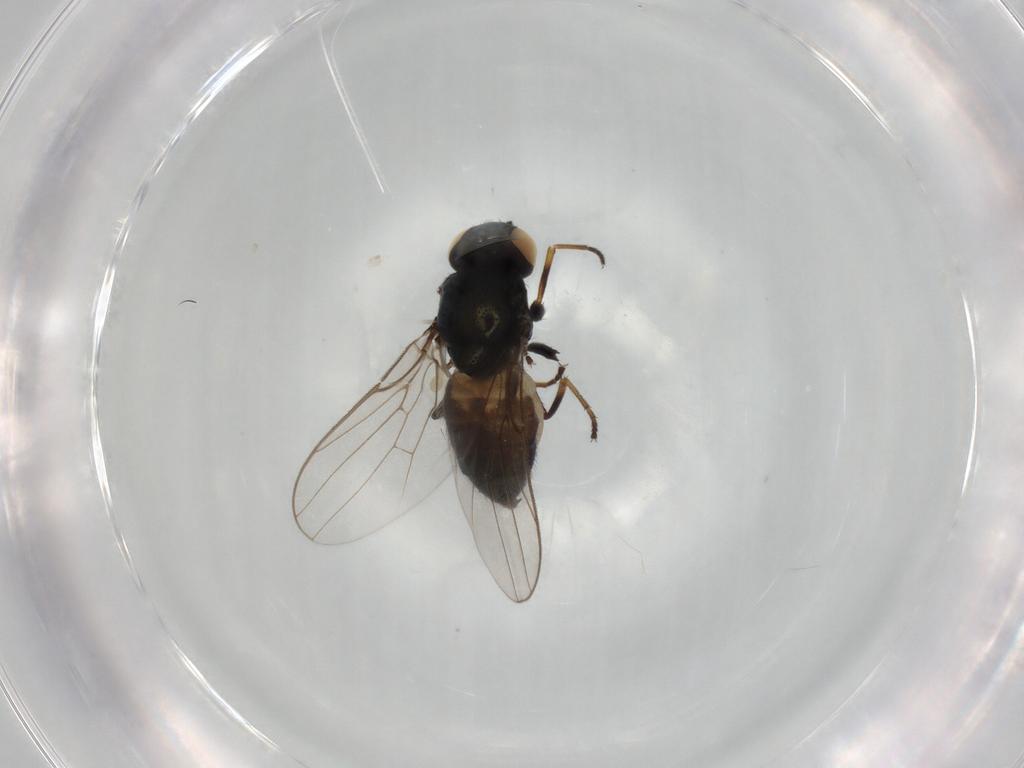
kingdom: Animalia
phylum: Arthropoda
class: Insecta
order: Diptera
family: Chloropidae
